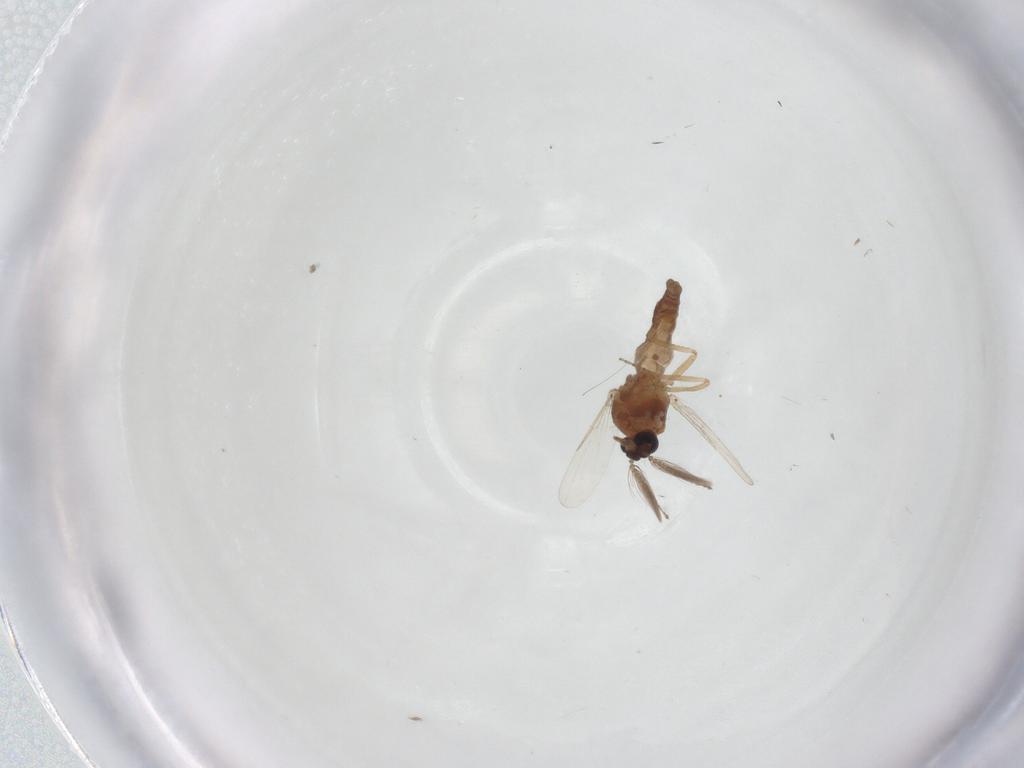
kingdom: Animalia
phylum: Arthropoda
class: Insecta
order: Diptera
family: Ceratopogonidae
